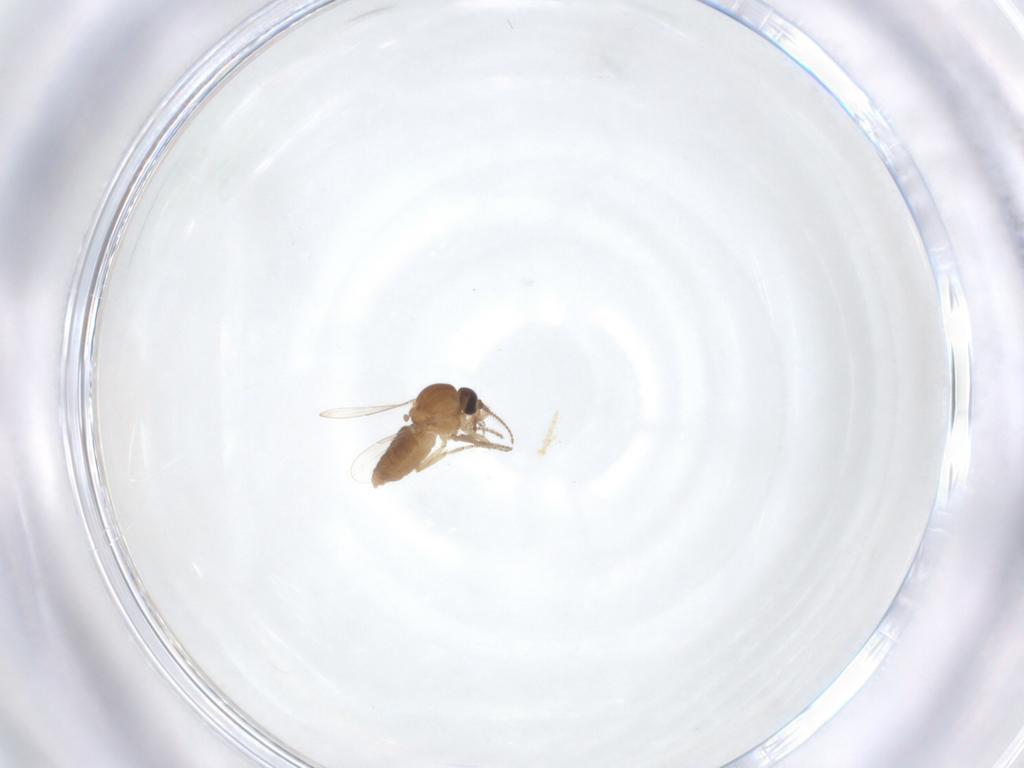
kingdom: Animalia
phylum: Arthropoda
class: Insecta
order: Diptera
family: Ceratopogonidae
